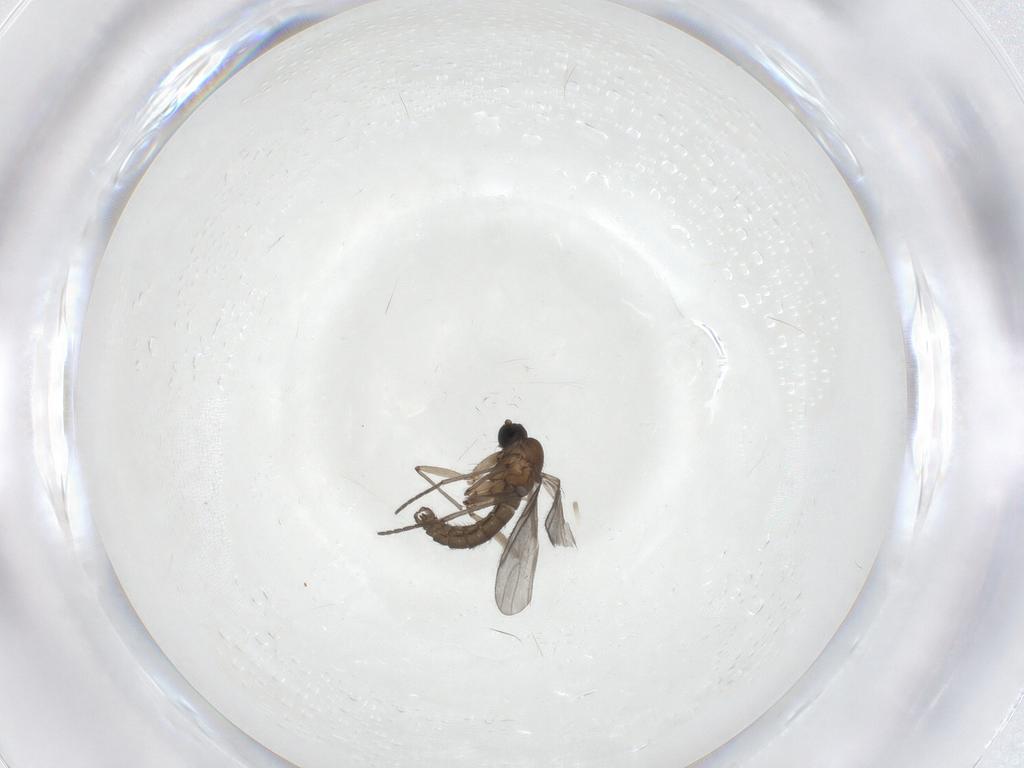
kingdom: Animalia
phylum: Arthropoda
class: Insecta
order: Diptera
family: Sciaridae
